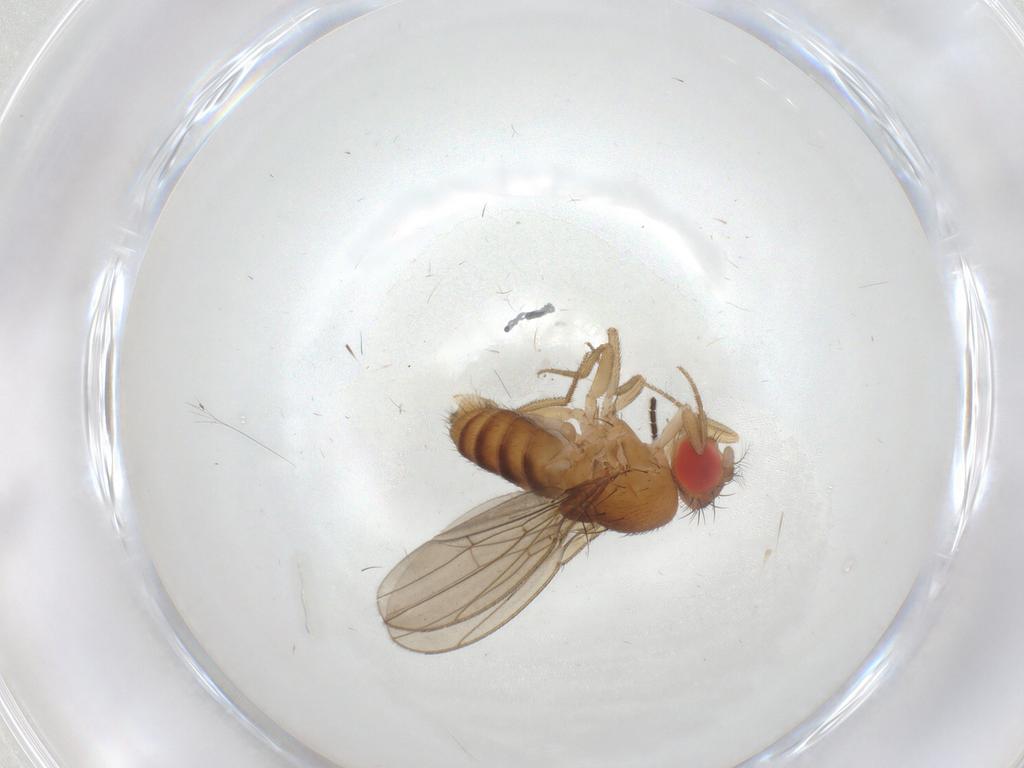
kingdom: Animalia
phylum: Arthropoda
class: Insecta
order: Diptera
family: Drosophilidae
